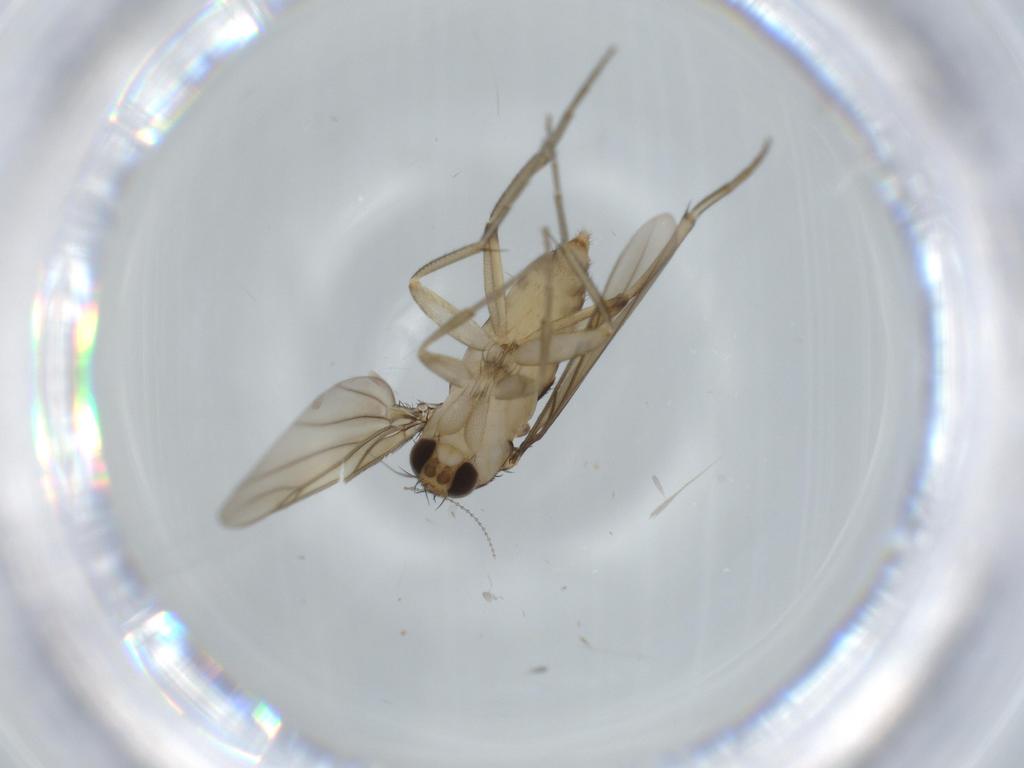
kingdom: Animalia
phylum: Arthropoda
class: Insecta
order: Diptera
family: Phoridae
